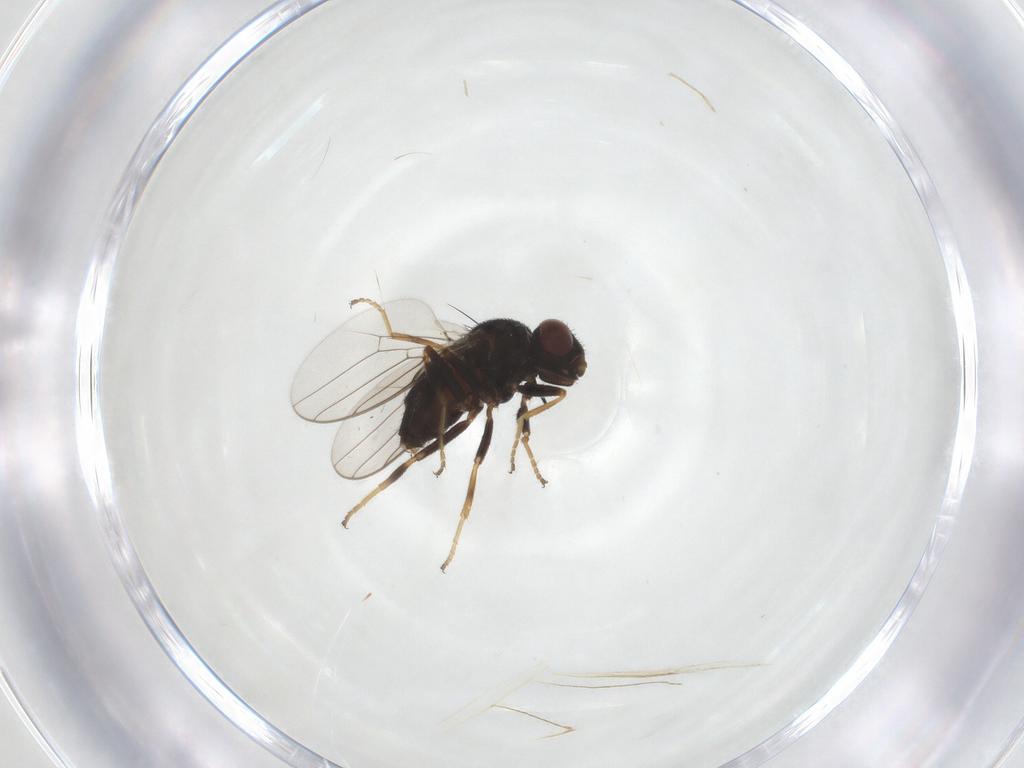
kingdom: Animalia
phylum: Arthropoda
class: Insecta
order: Diptera
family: Chloropidae
